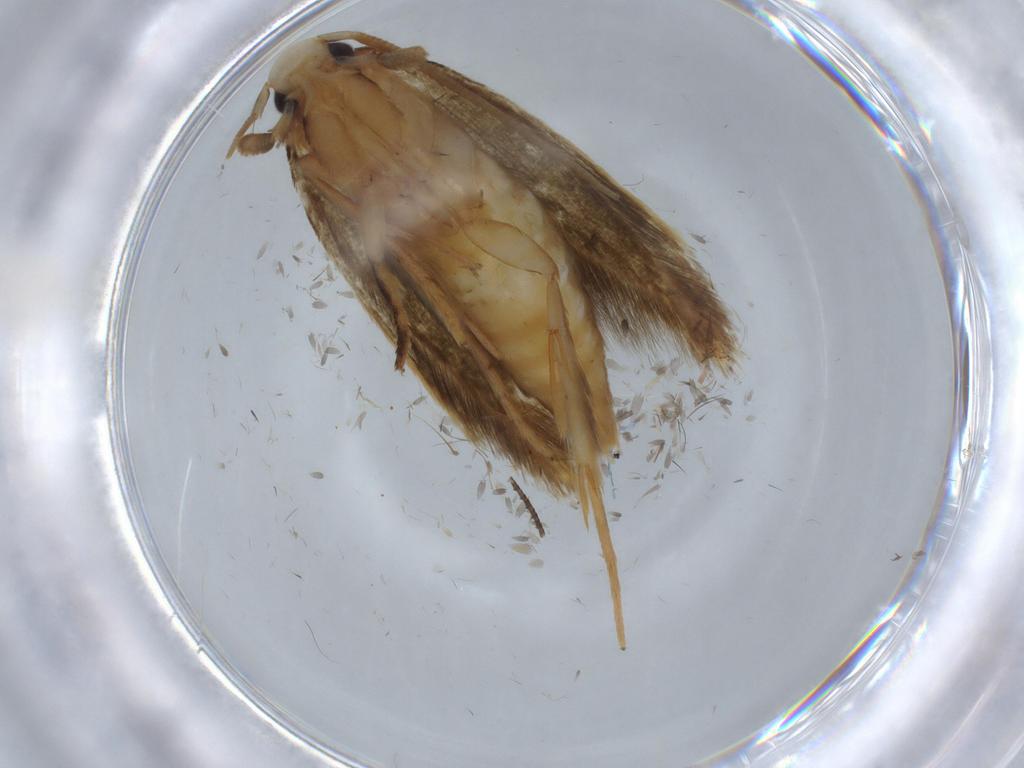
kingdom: Animalia
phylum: Arthropoda
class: Insecta
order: Lepidoptera
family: Tineidae
